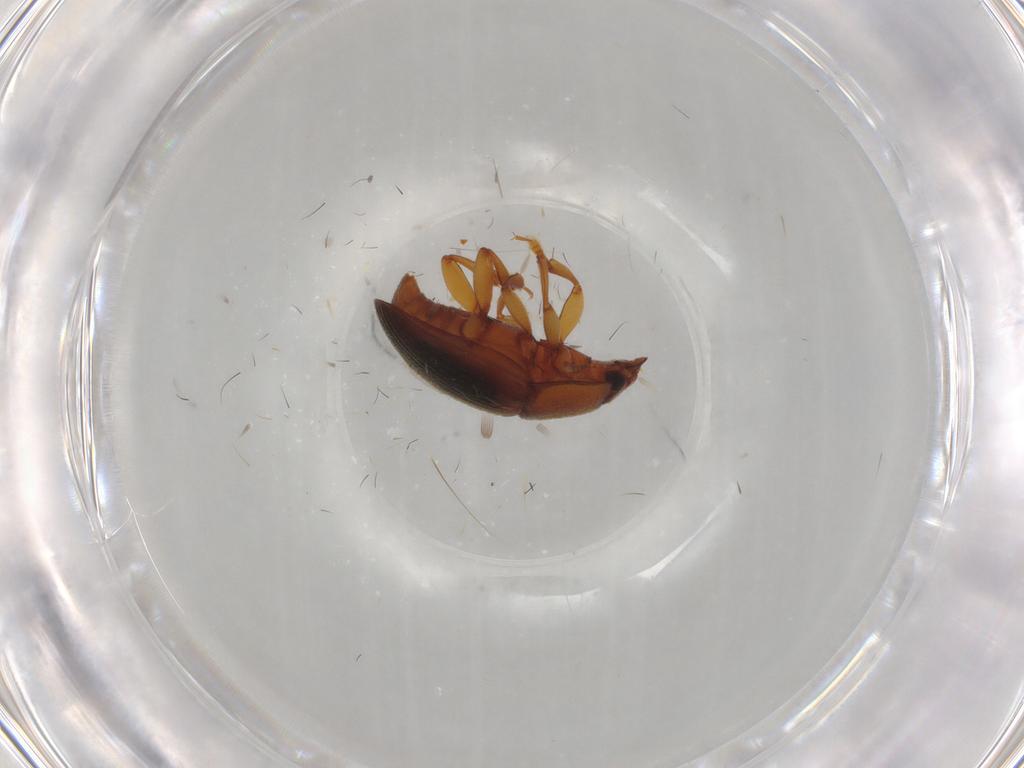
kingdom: Animalia
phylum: Arthropoda
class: Insecta
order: Coleoptera
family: Nitidulidae
